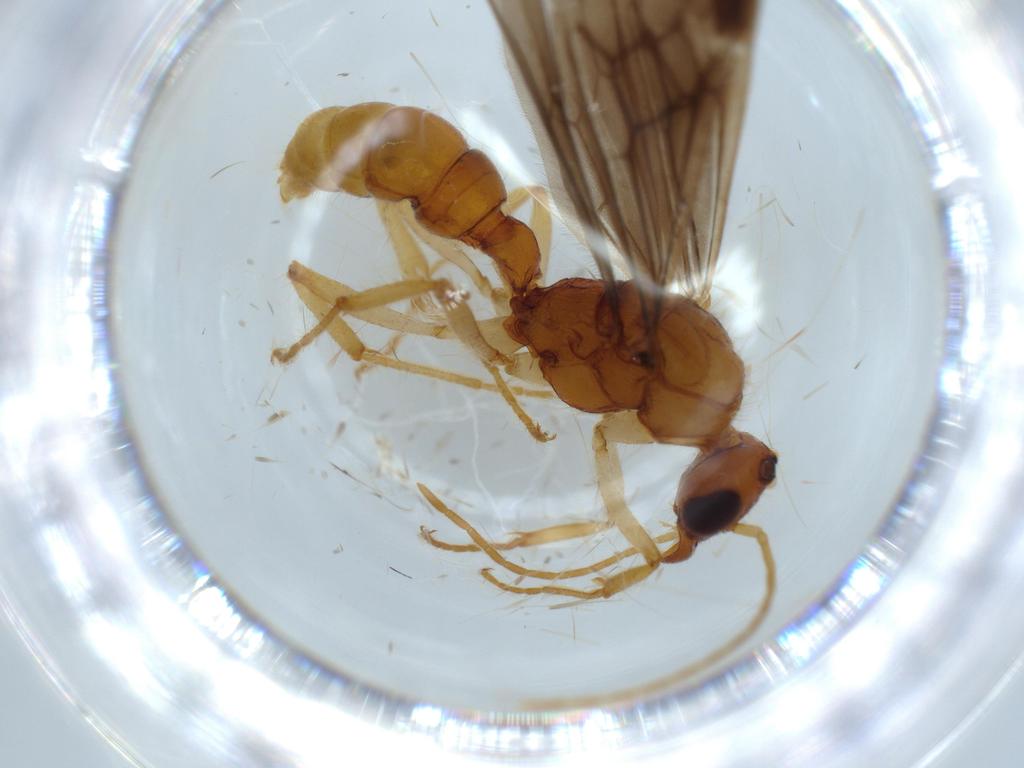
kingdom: Animalia
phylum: Arthropoda
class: Insecta
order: Hymenoptera
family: Formicidae
